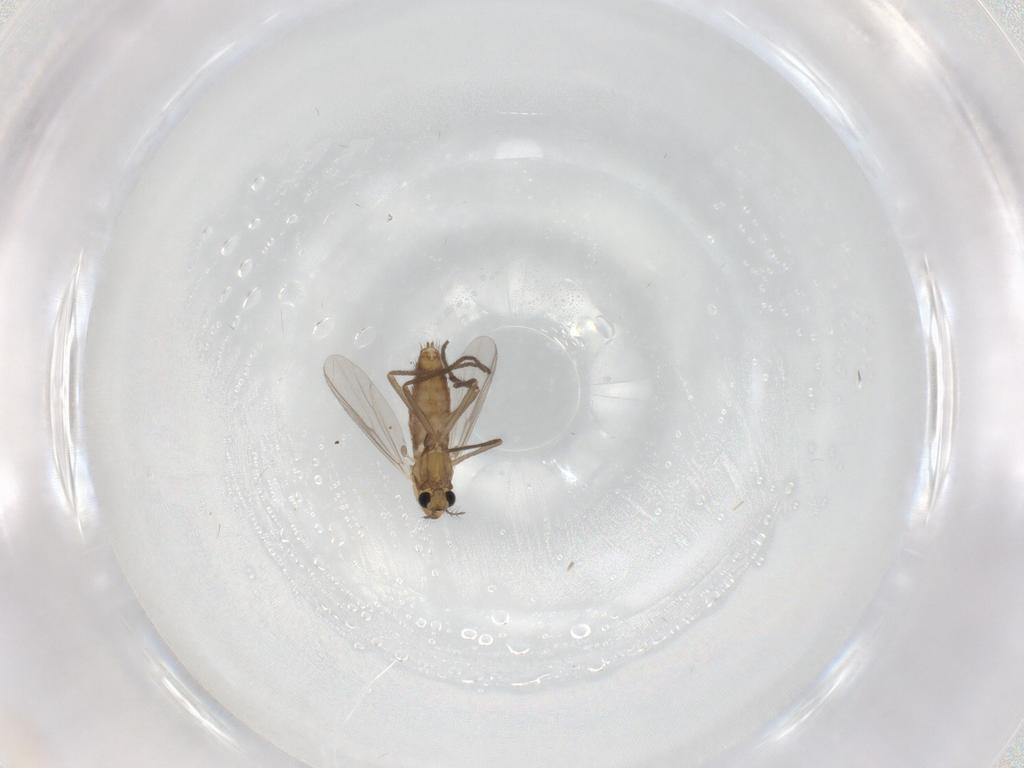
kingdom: Animalia
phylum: Arthropoda
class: Insecta
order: Diptera
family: Chironomidae
